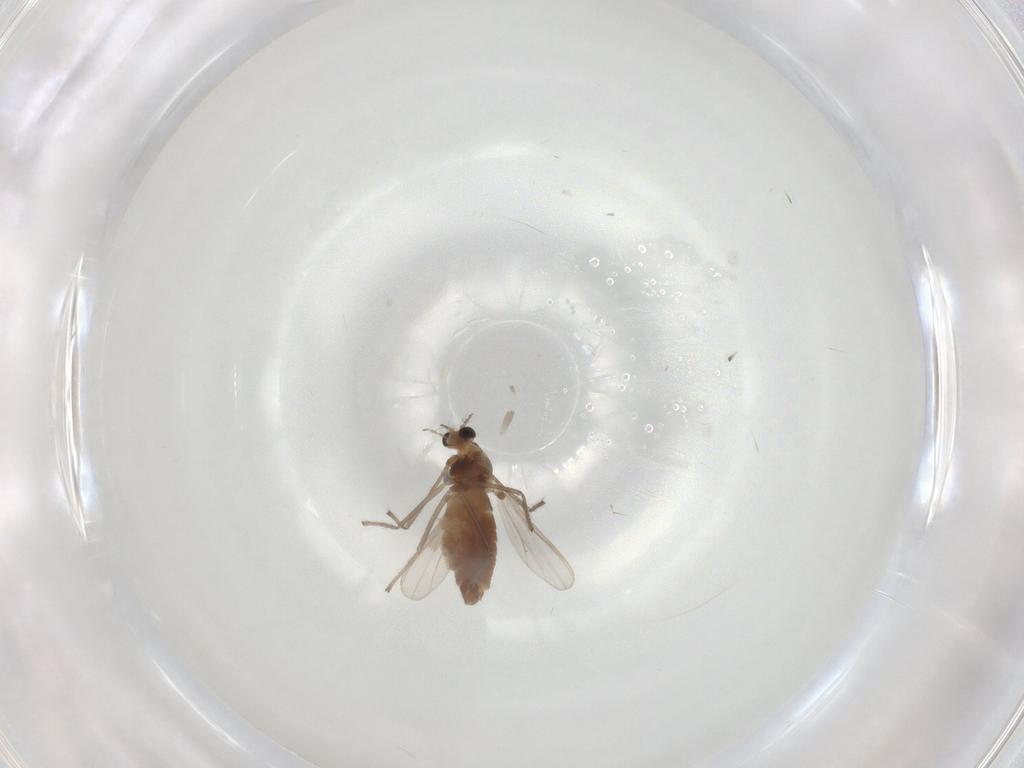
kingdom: Animalia
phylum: Arthropoda
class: Insecta
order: Diptera
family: Chironomidae
